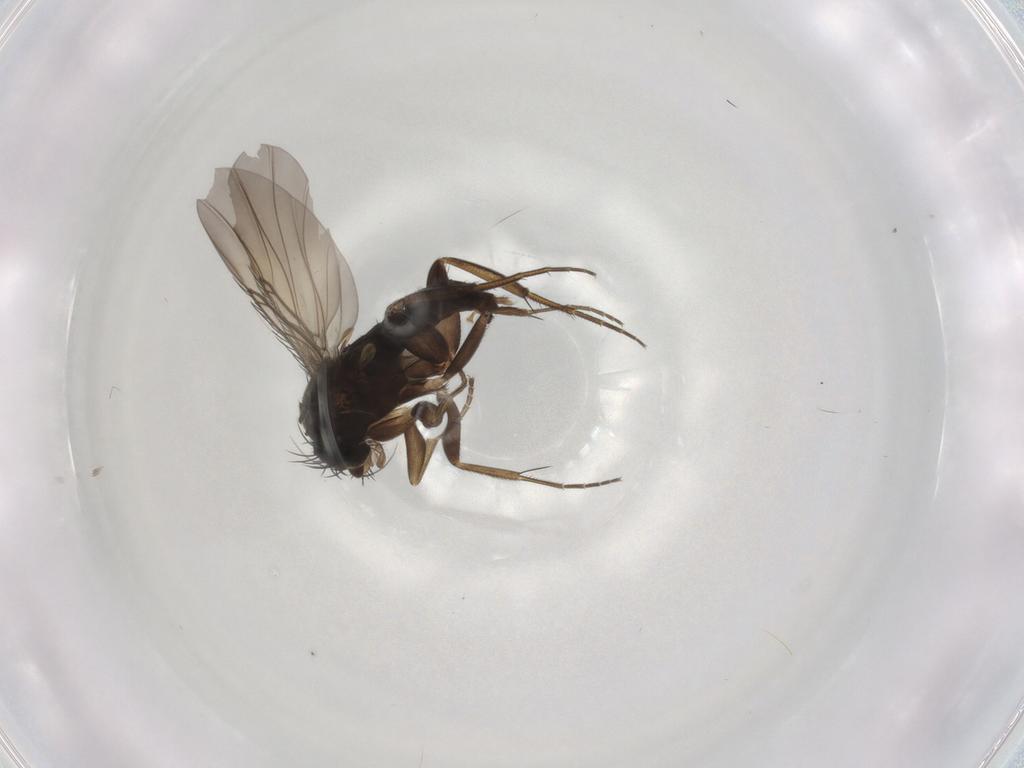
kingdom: Animalia
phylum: Arthropoda
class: Insecta
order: Diptera
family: Phoridae
